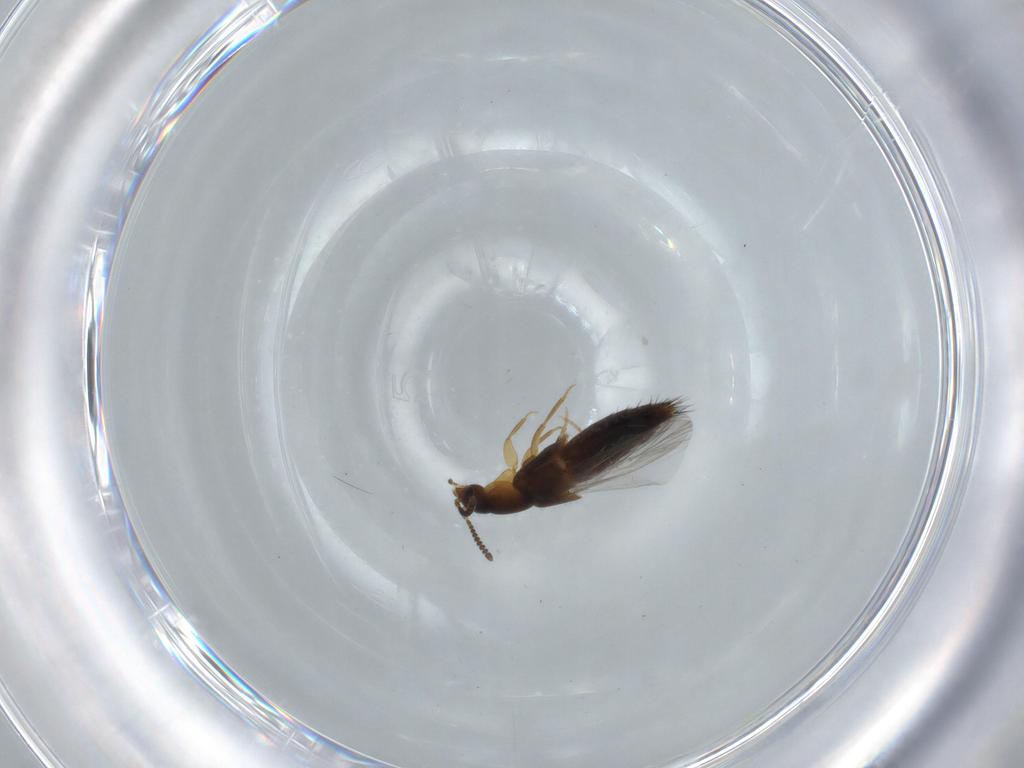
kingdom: Animalia
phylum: Arthropoda
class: Insecta
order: Coleoptera
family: Staphylinidae
